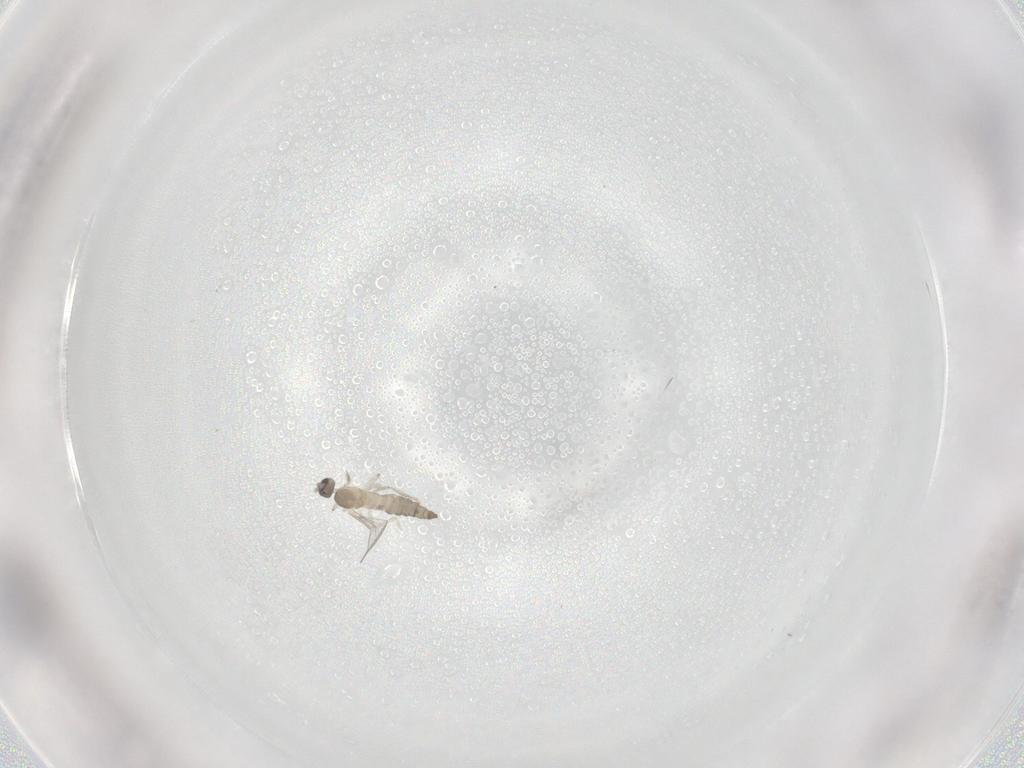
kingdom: Animalia
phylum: Arthropoda
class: Insecta
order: Diptera
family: Cecidomyiidae
